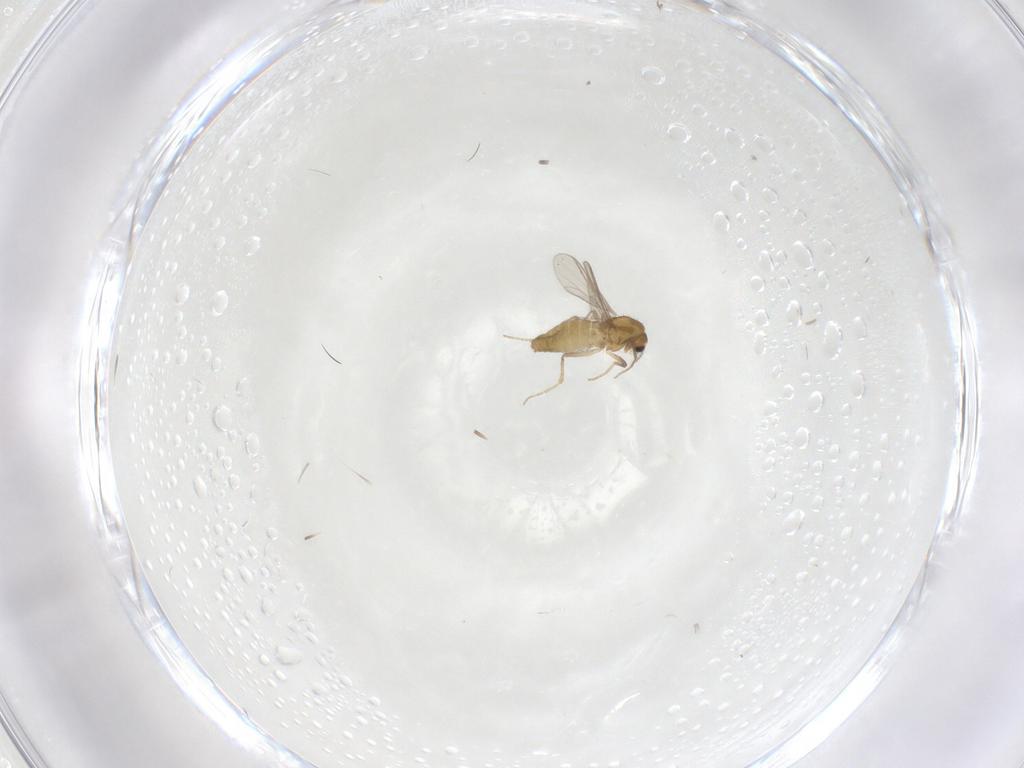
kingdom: Animalia
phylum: Arthropoda
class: Insecta
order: Diptera
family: Chironomidae
